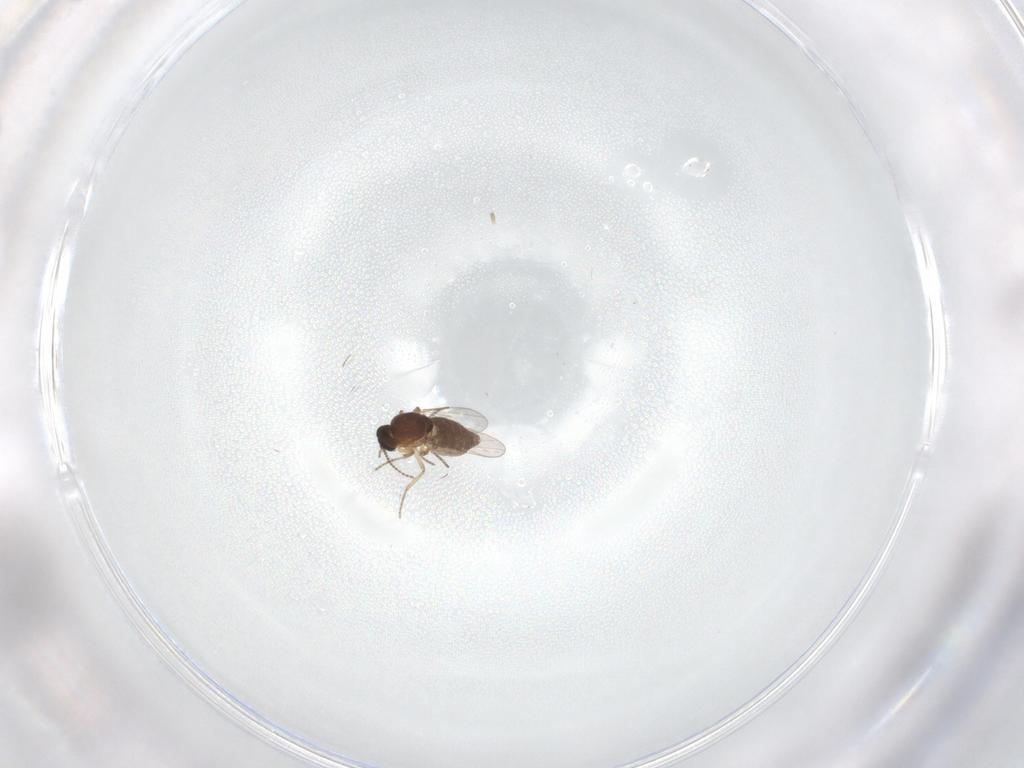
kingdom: Animalia
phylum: Arthropoda
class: Insecta
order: Diptera
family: Ceratopogonidae
